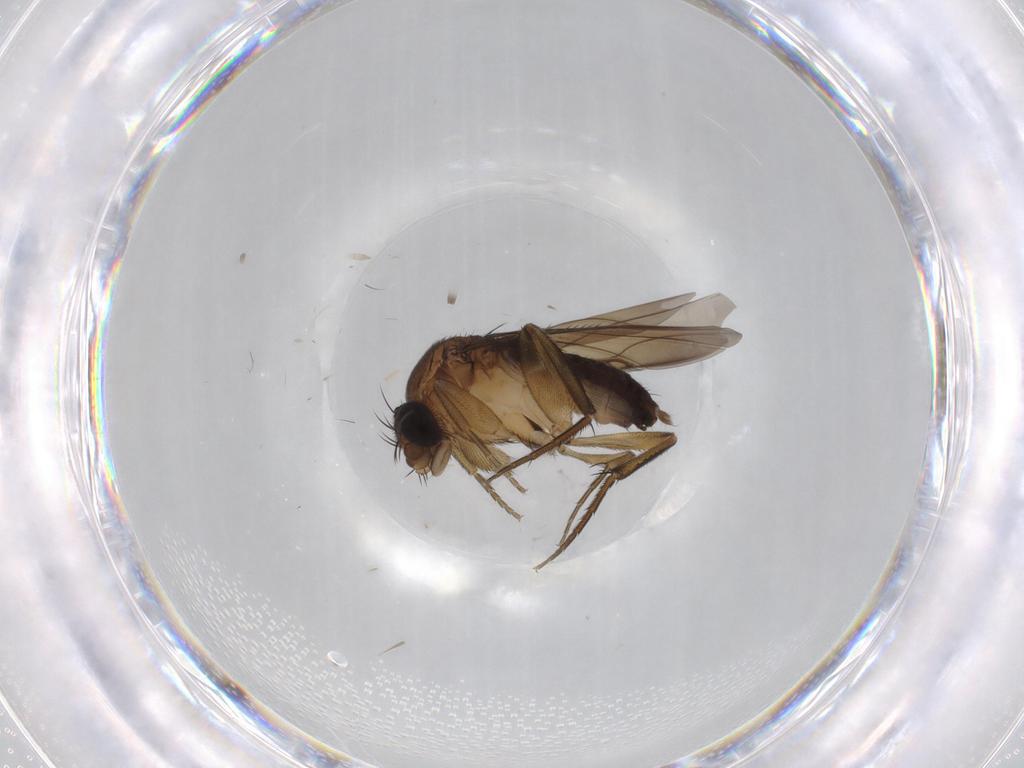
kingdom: Animalia
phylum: Arthropoda
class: Insecta
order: Diptera
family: Phoridae
